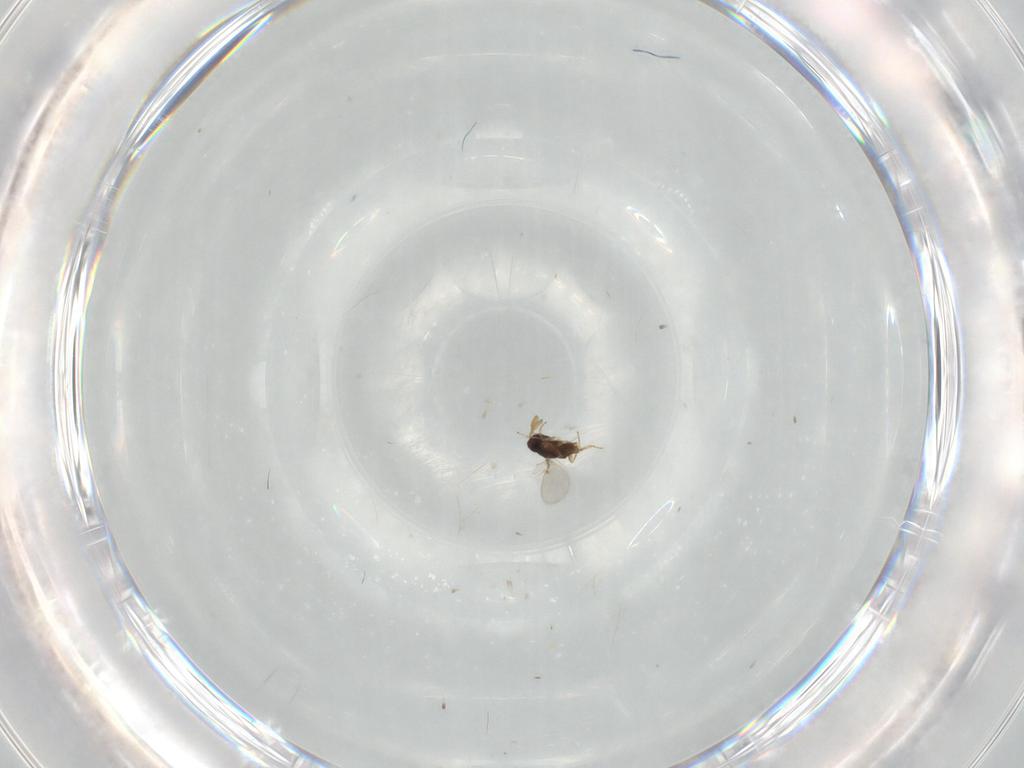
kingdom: Animalia
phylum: Arthropoda
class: Insecta
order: Hymenoptera
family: Encyrtidae
